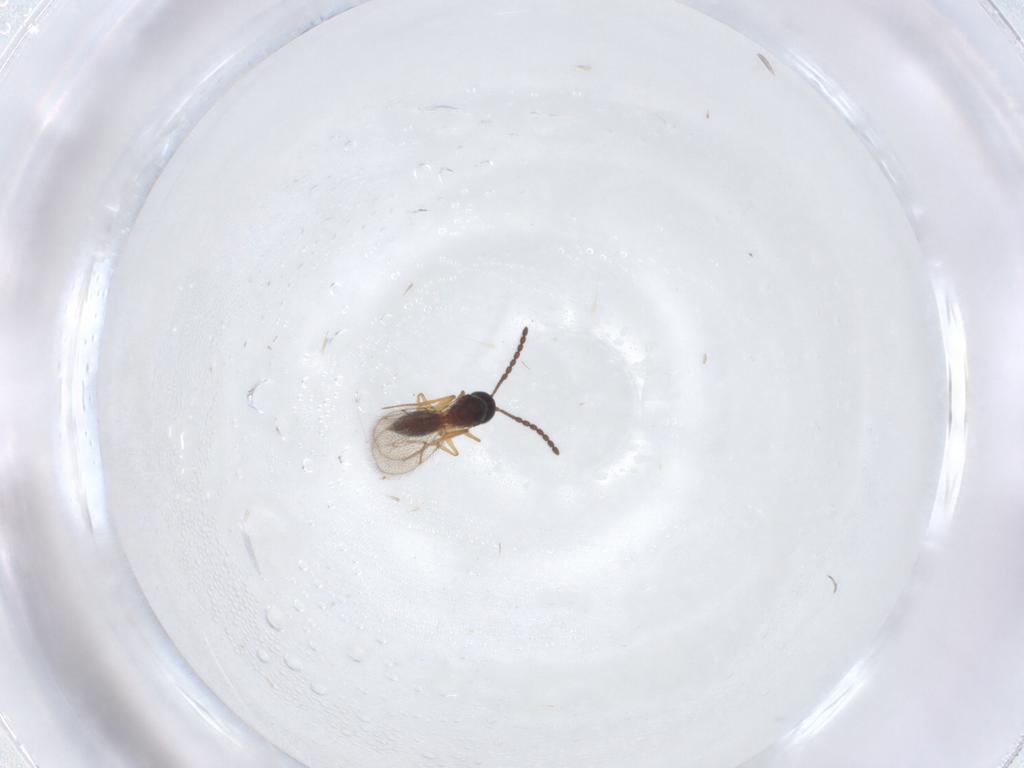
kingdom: Animalia
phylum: Arthropoda
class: Insecta
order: Hymenoptera
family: Figitidae
